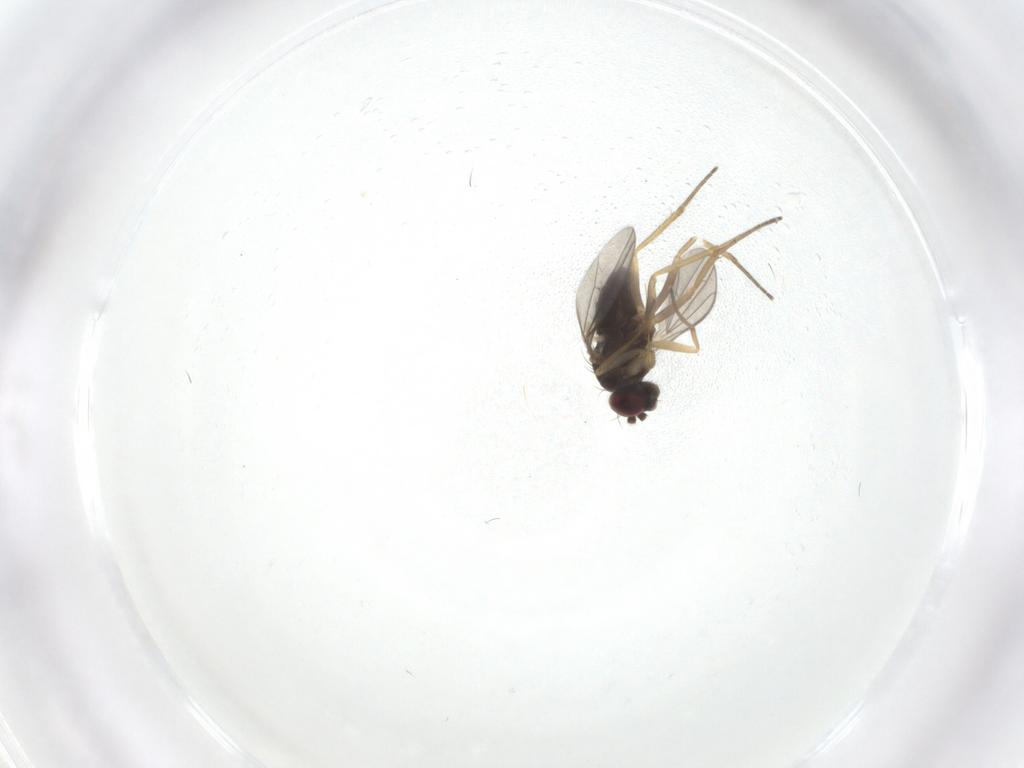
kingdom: Animalia
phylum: Arthropoda
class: Insecta
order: Diptera
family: Dolichopodidae
